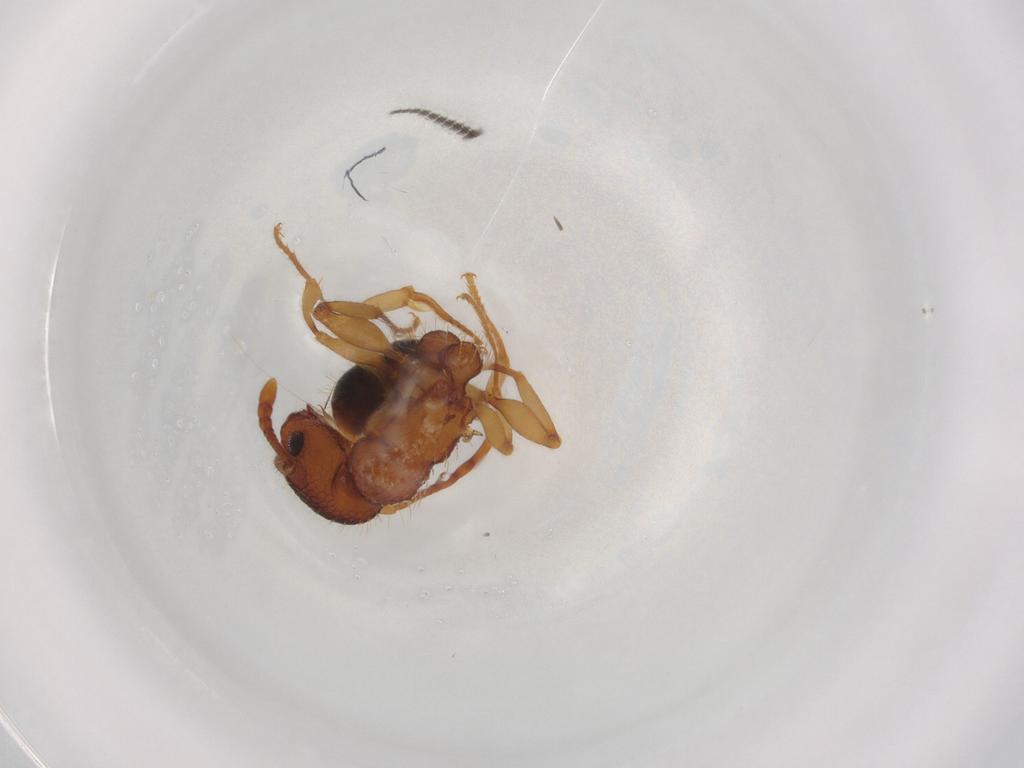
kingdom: Animalia
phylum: Arthropoda
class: Insecta
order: Hymenoptera
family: Formicidae
